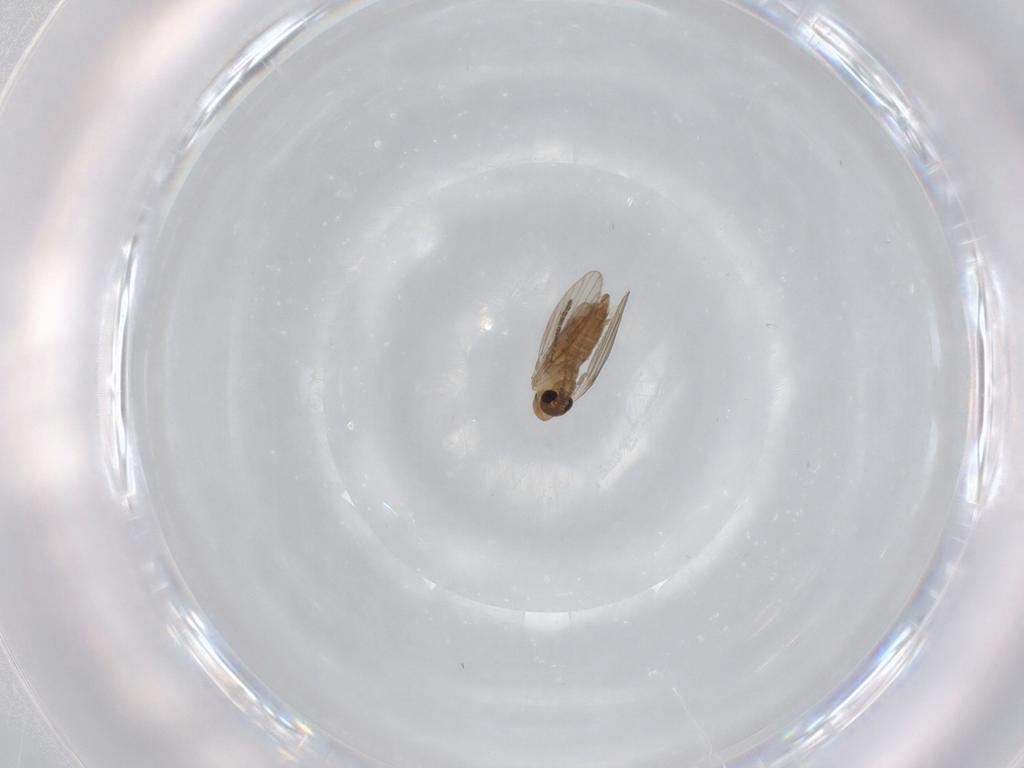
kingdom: Animalia
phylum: Arthropoda
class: Insecta
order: Diptera
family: Psychodidae
